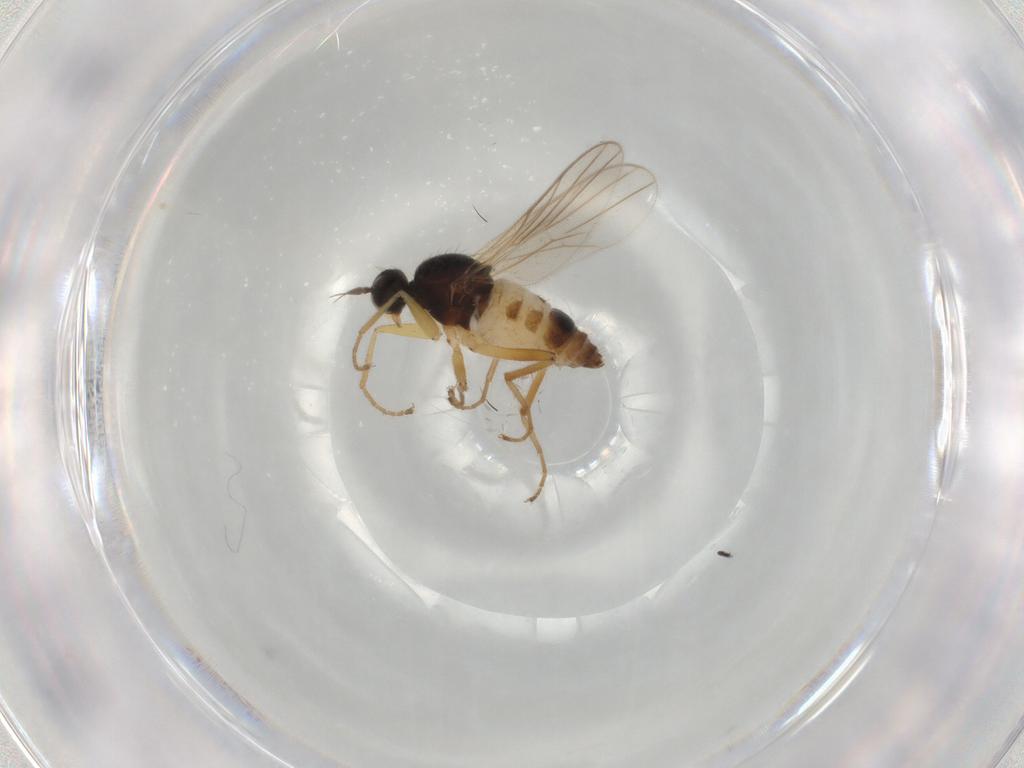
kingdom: Animalia
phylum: Arthropoda
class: Insecta
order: Diptera
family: Hybotidae
